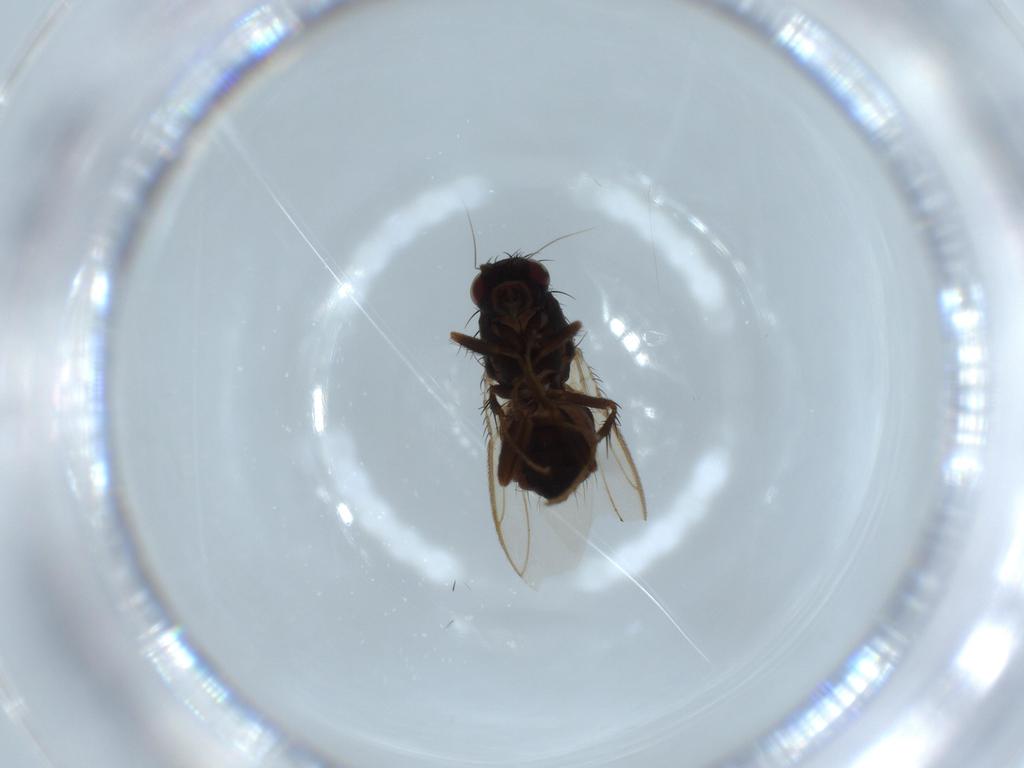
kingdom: Animalia
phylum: Arthropoda
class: Insecta
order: Diptera
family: Sphaeroceridae
